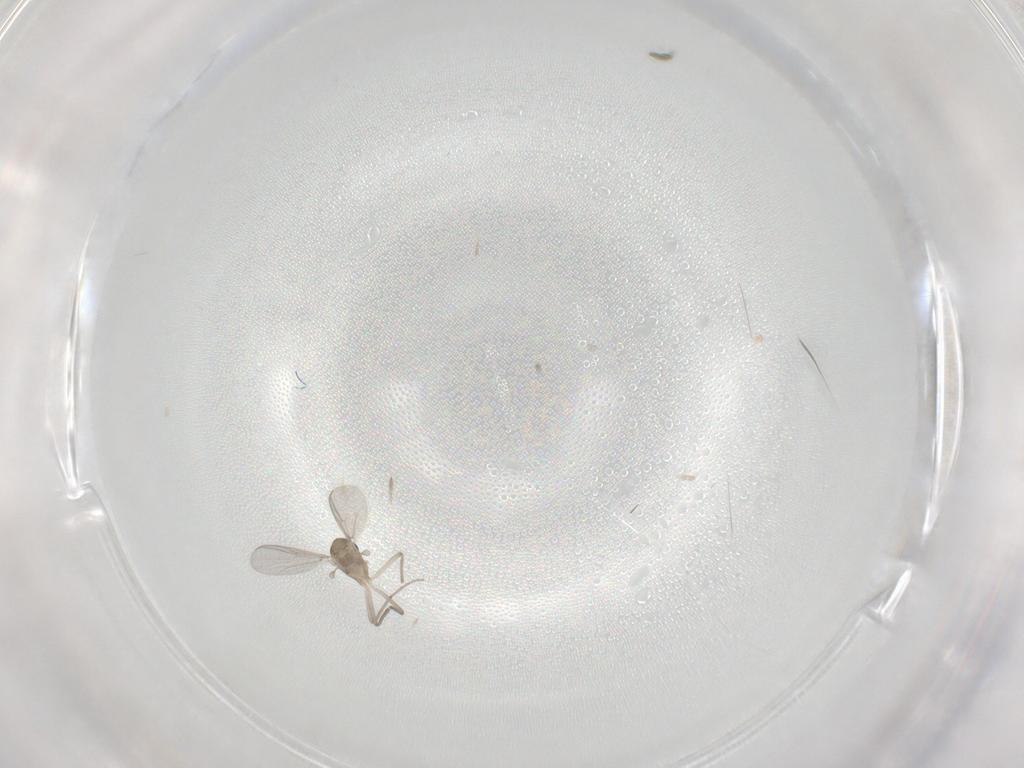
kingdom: Animalia
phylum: Arthropoda
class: Insecta
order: Diptera
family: Chironomidae
